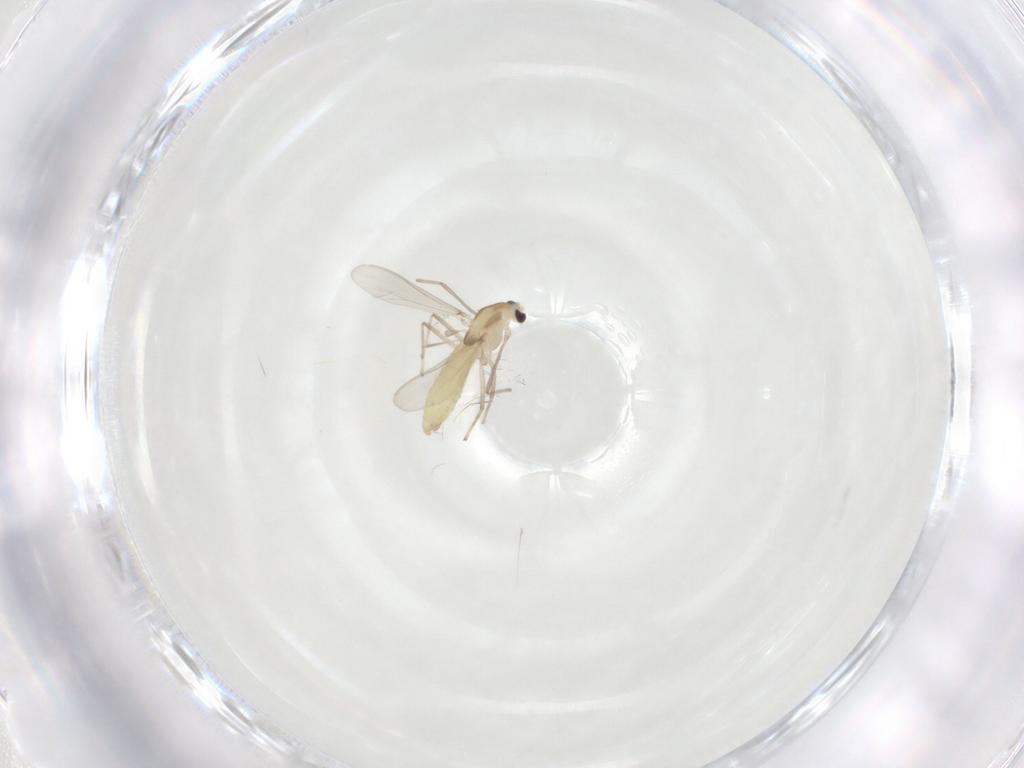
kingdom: Animalia
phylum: Arthropoda
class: Insecta
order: Diptera
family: Chironomidae
